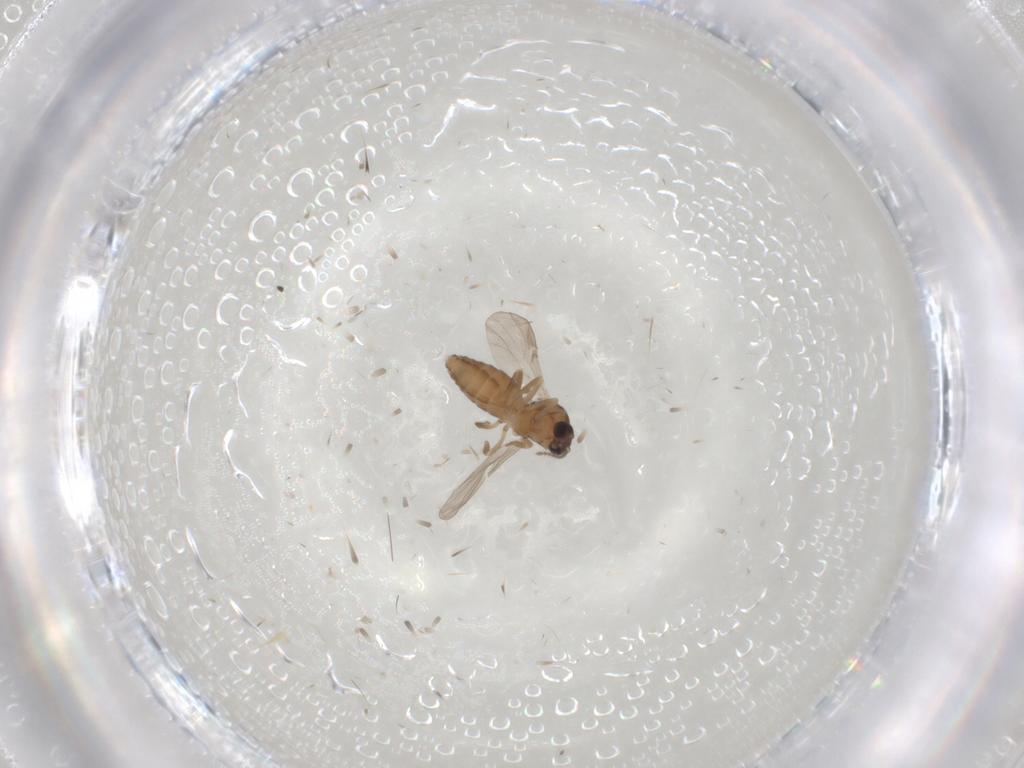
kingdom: Animalia
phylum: Arthropoda
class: Insecta
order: Diptera
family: Ceratopogonidae
